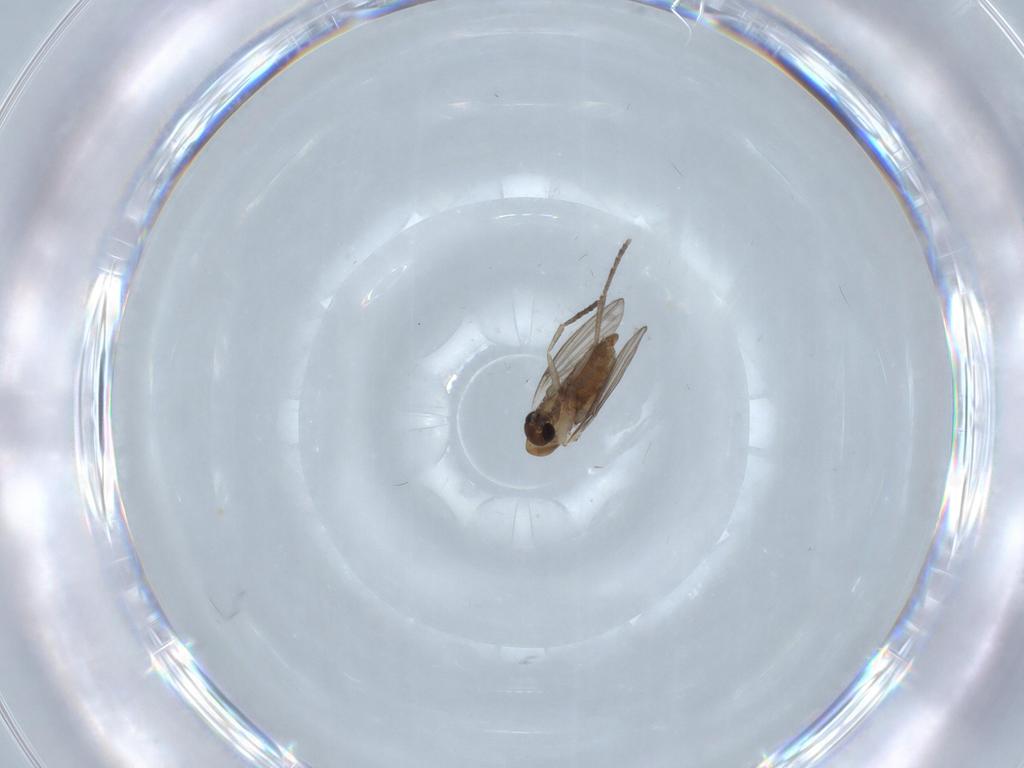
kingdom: Animalia
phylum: Arthropoda
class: Insecta
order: Diptera
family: Psychodidae
